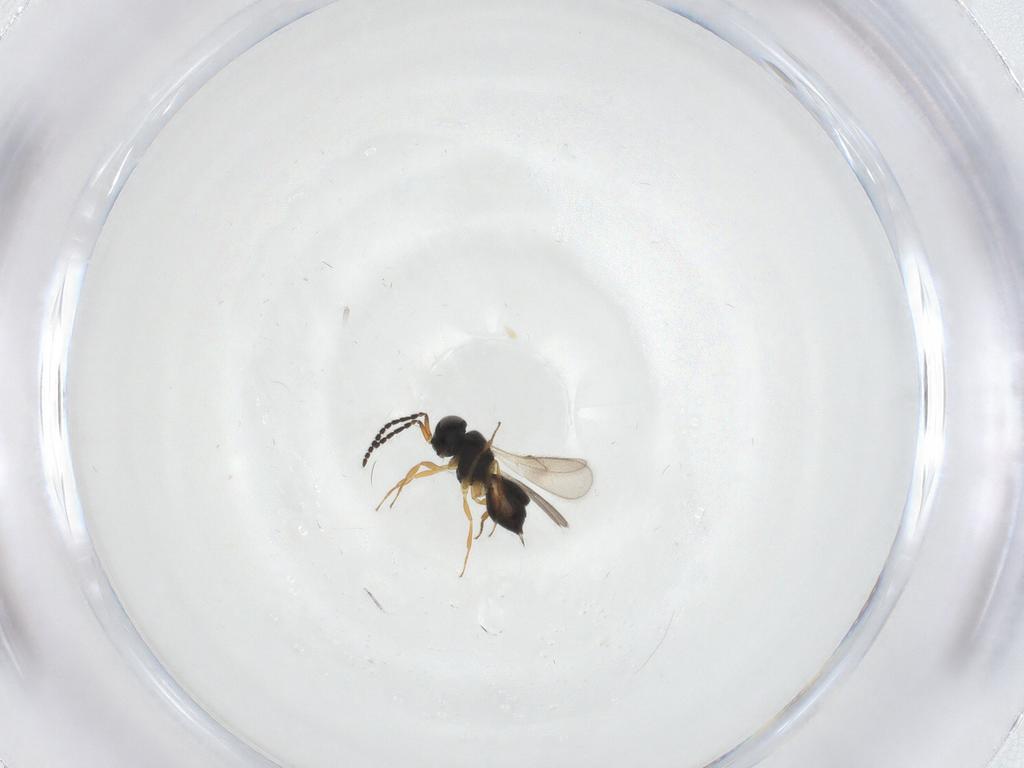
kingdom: Animalia
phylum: Arthropoda
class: Insecta
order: Hymenoptera
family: Scelionidae
